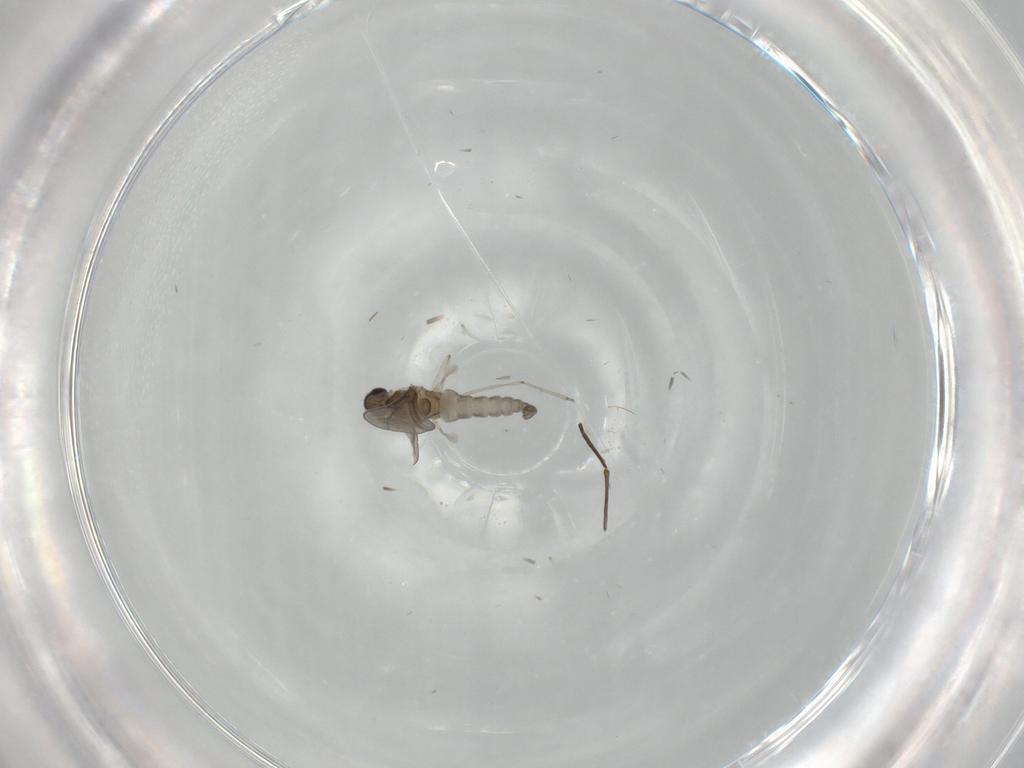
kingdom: Animalia
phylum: Arthropoda
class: Insecta
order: Diptera
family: Cecidomyiidae
